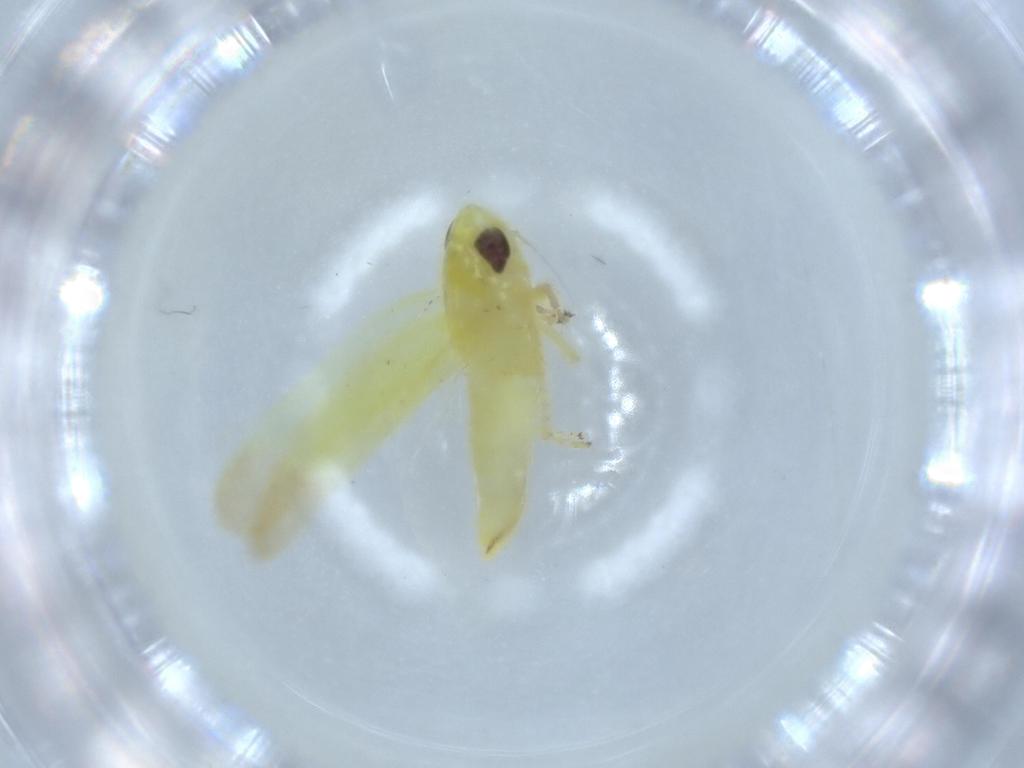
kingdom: Animalia
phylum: Arthropoda
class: Insecta
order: Hemiptera
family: Cicadellidae
